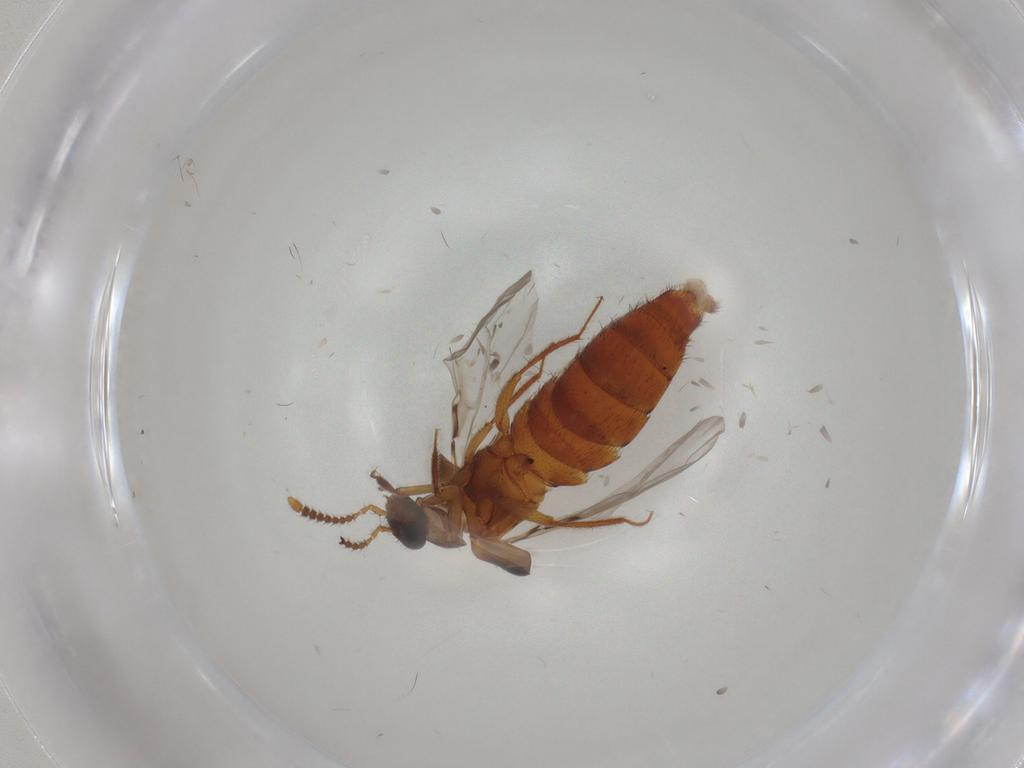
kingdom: Animalia
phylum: Arthropoda
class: Insecta
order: Coleoptera
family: Staphylinidae
